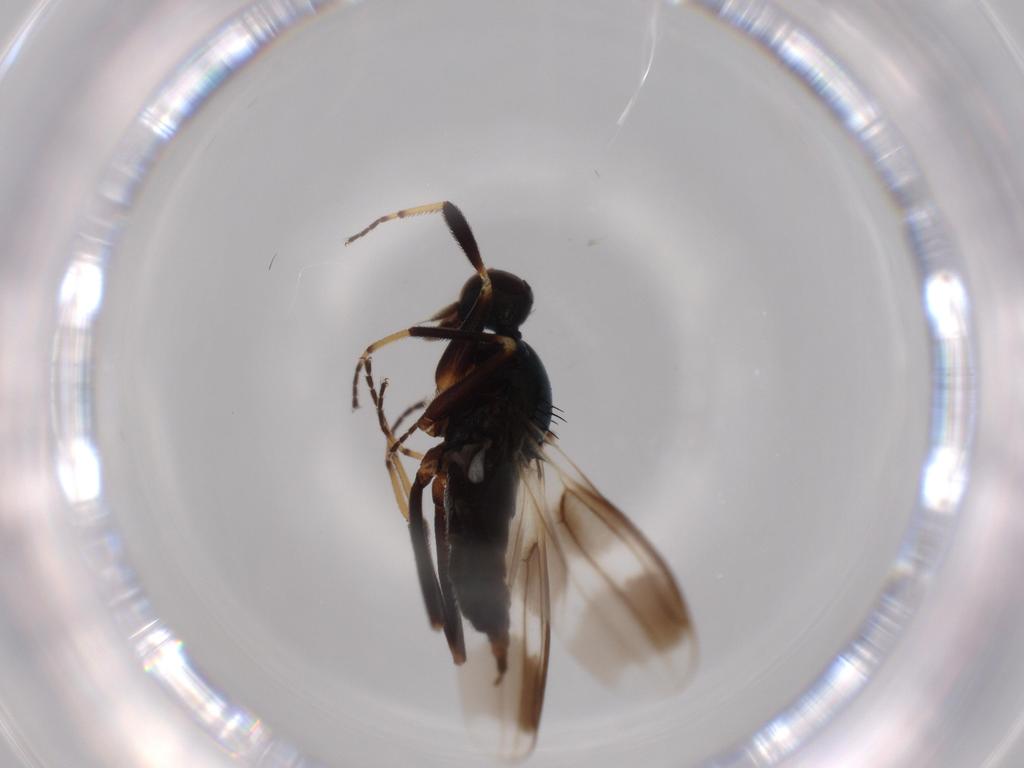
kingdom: Animalia
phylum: Arthropoda
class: Insecta
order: Diptera
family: Hybotidae
